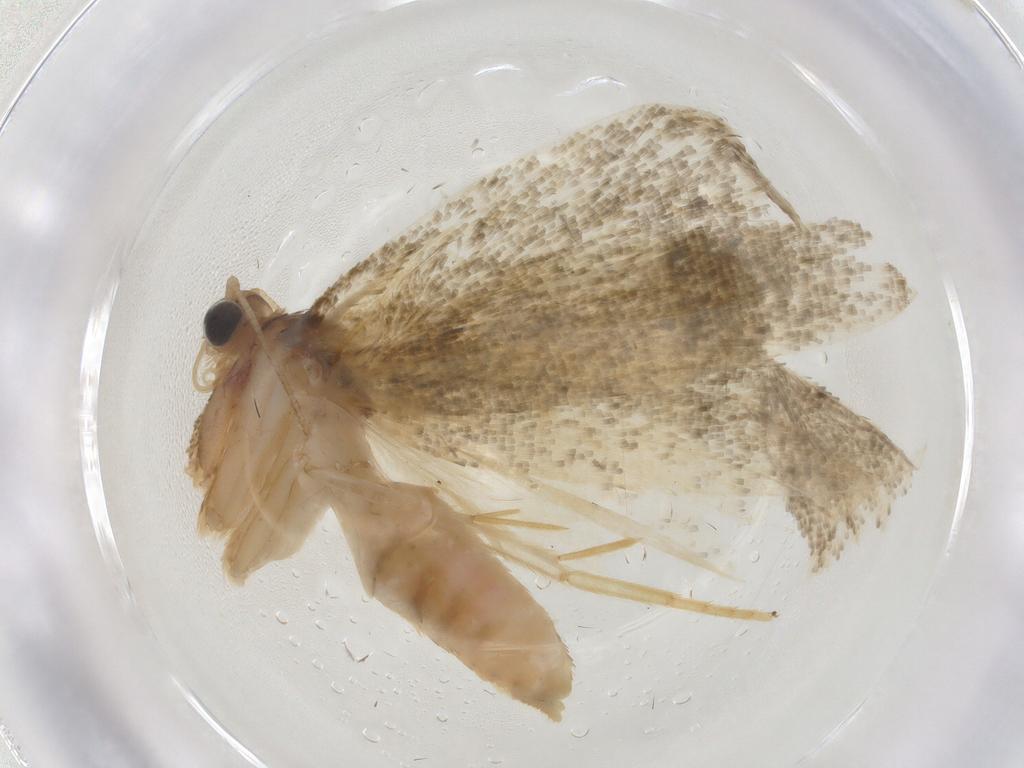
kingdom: Animalia
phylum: Arthropoda
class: Insecta
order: Lepidoptera
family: Tortricidae
